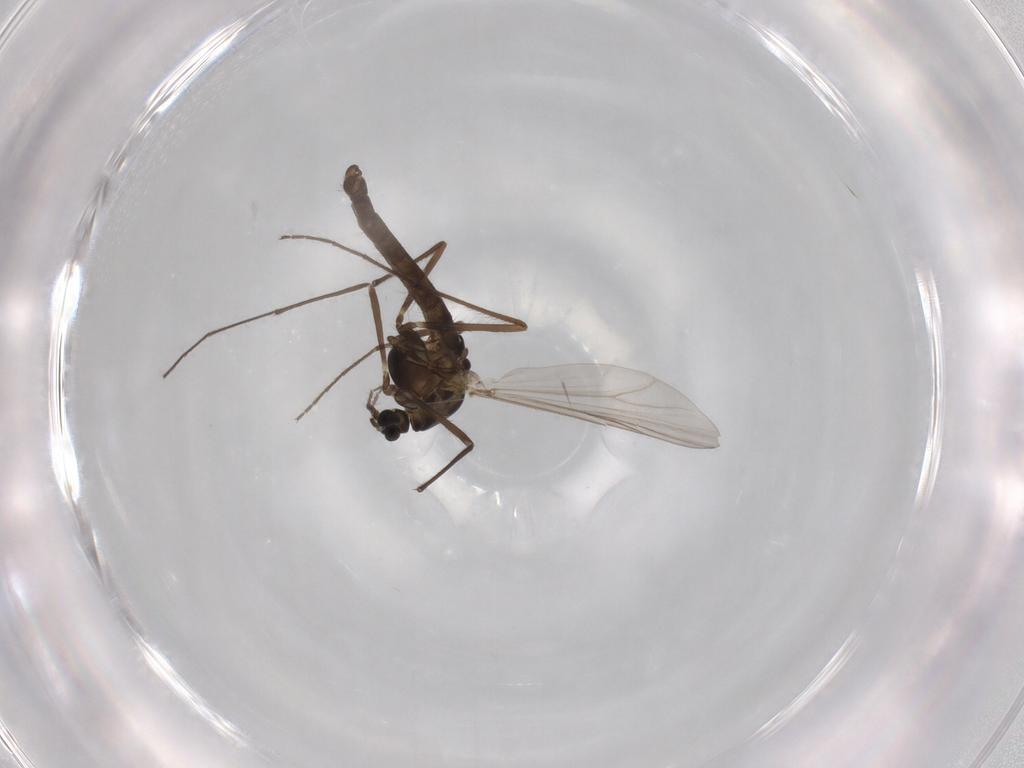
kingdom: Animalia
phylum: Arthropoda
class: Insecta
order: Diptera
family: Chironomidae
